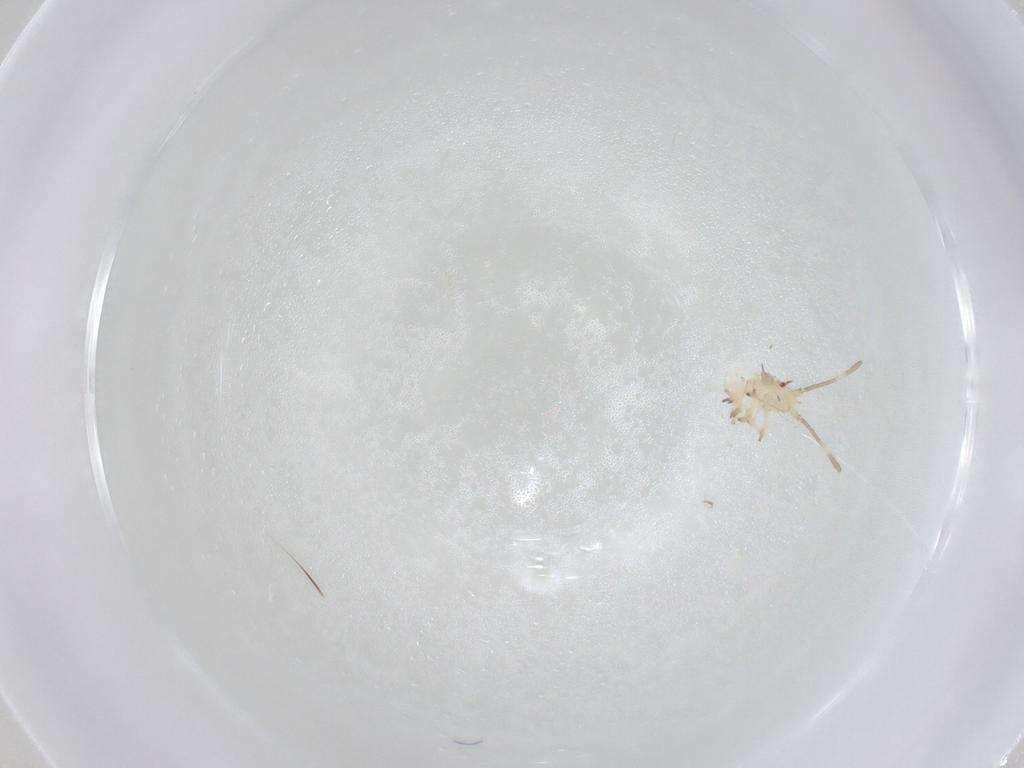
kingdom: Animalia
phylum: Arthropoda
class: Insecta
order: Hemiptera
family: Tingidae
